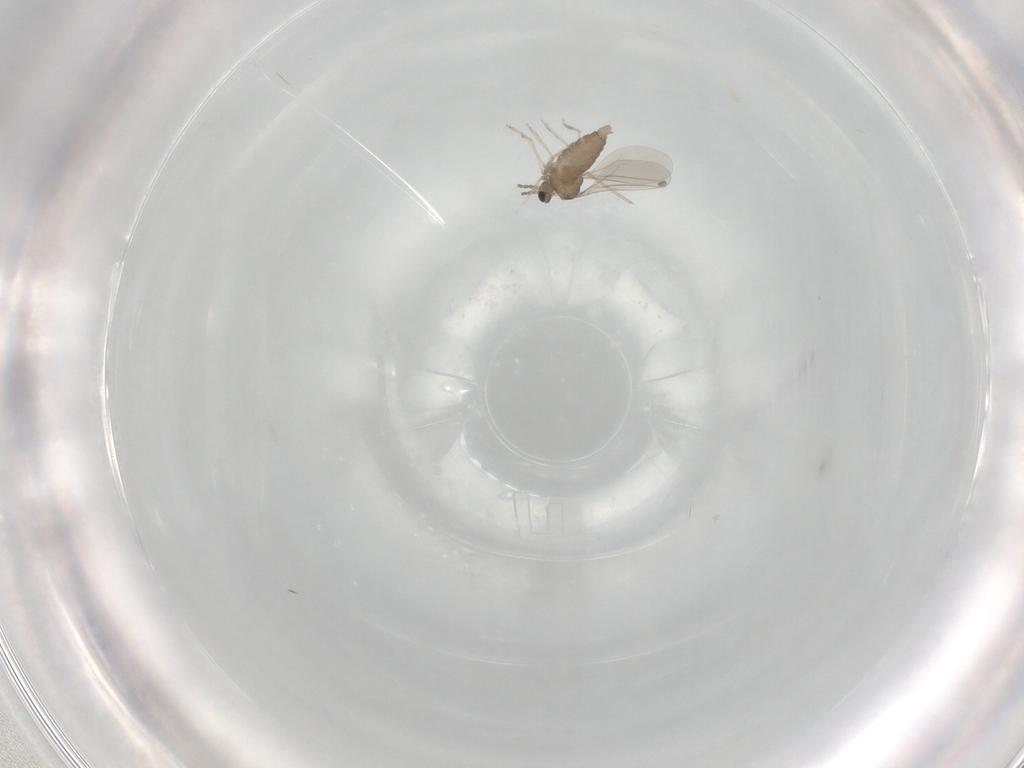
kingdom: Animalia
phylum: Arthropoda
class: Insecta
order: Diptera
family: Cecidomyiidae
